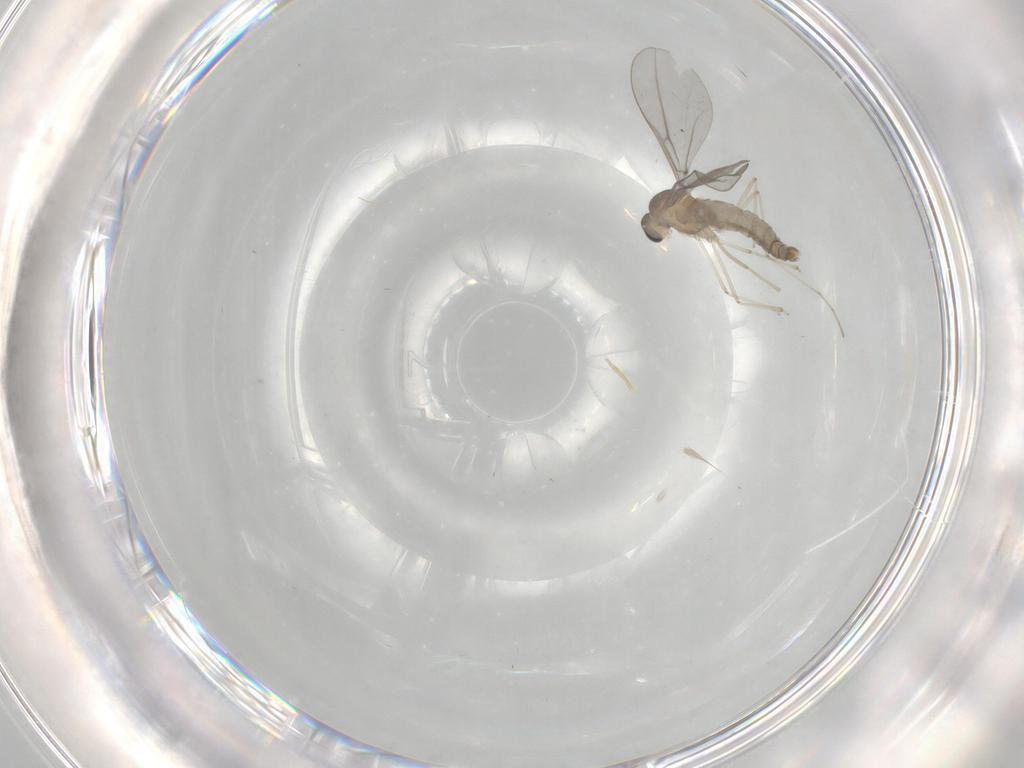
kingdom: Animalia
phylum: Arthropoda
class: Insecta
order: Diptera
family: Cecidomyiidae
